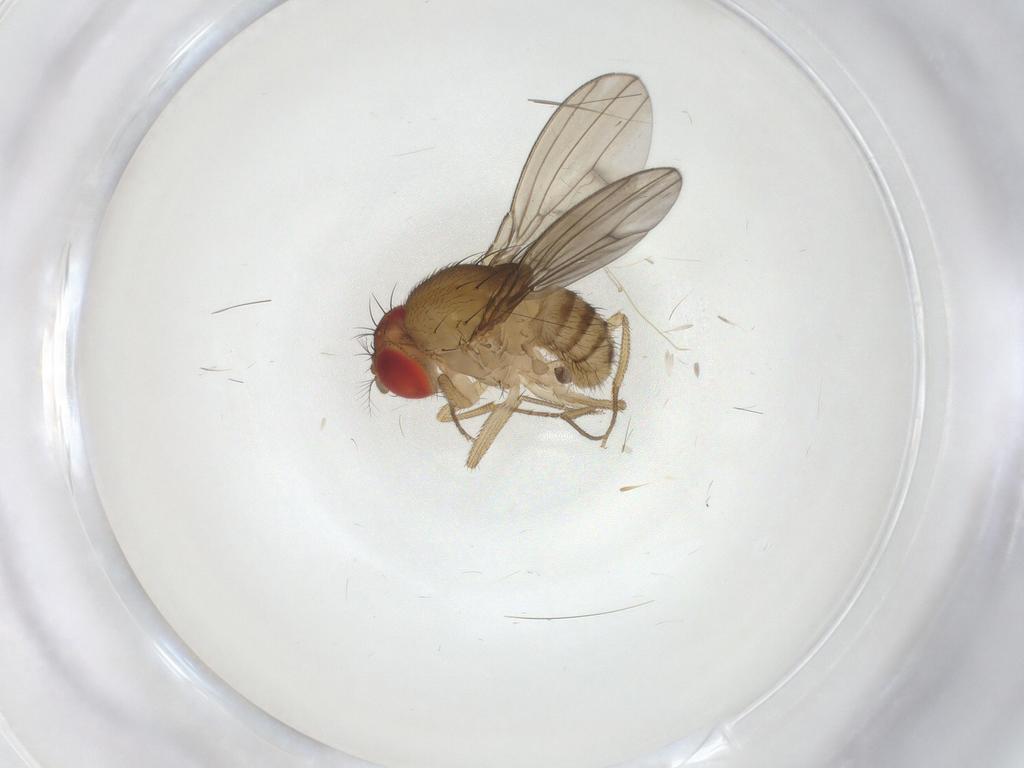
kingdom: Animalia
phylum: Arthropoda
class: Insecta
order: Diptera
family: Drosophilidae
